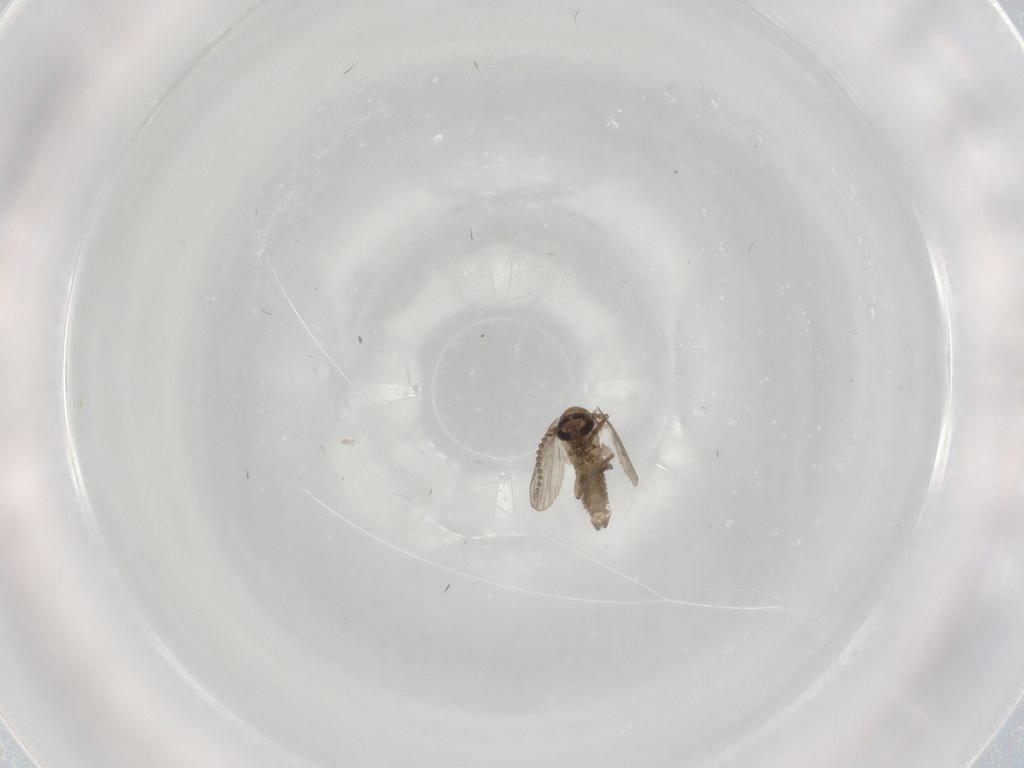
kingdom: Animalia
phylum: Arthropoda
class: Insecta
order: Diptera
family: Psychodidae
